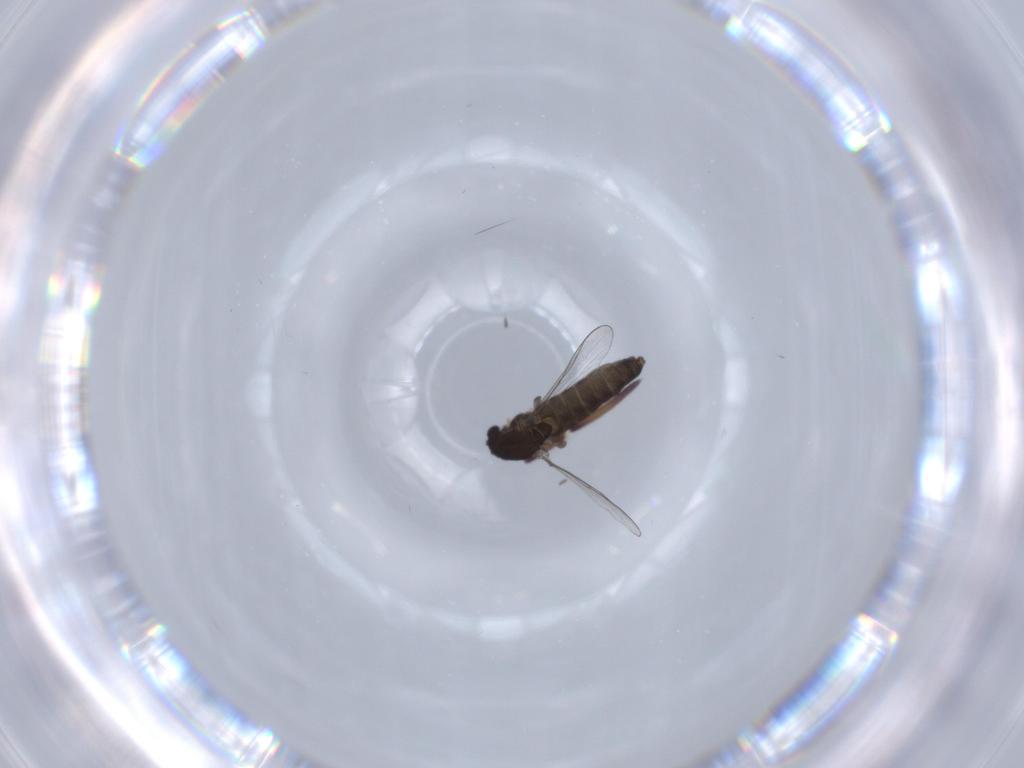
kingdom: Animalia
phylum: Arthropoda
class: Insecta
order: Diptera
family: Chironomidae
